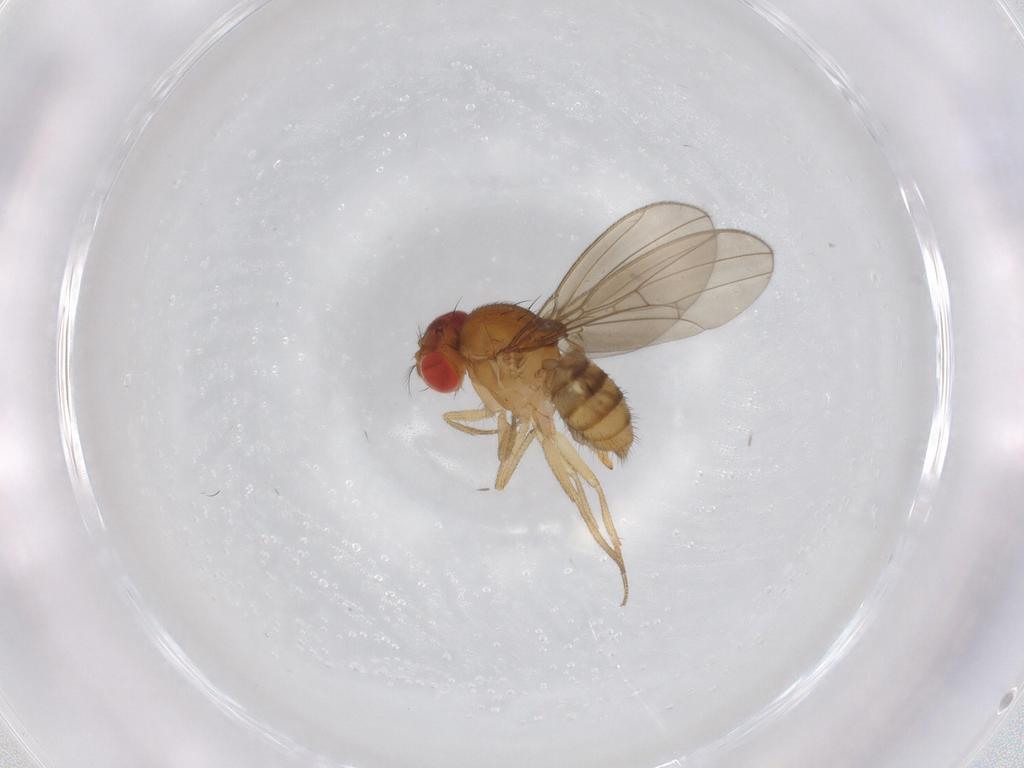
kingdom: Animalia
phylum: Arthropoda
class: Insecta
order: Diptera
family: Drosophilidae
